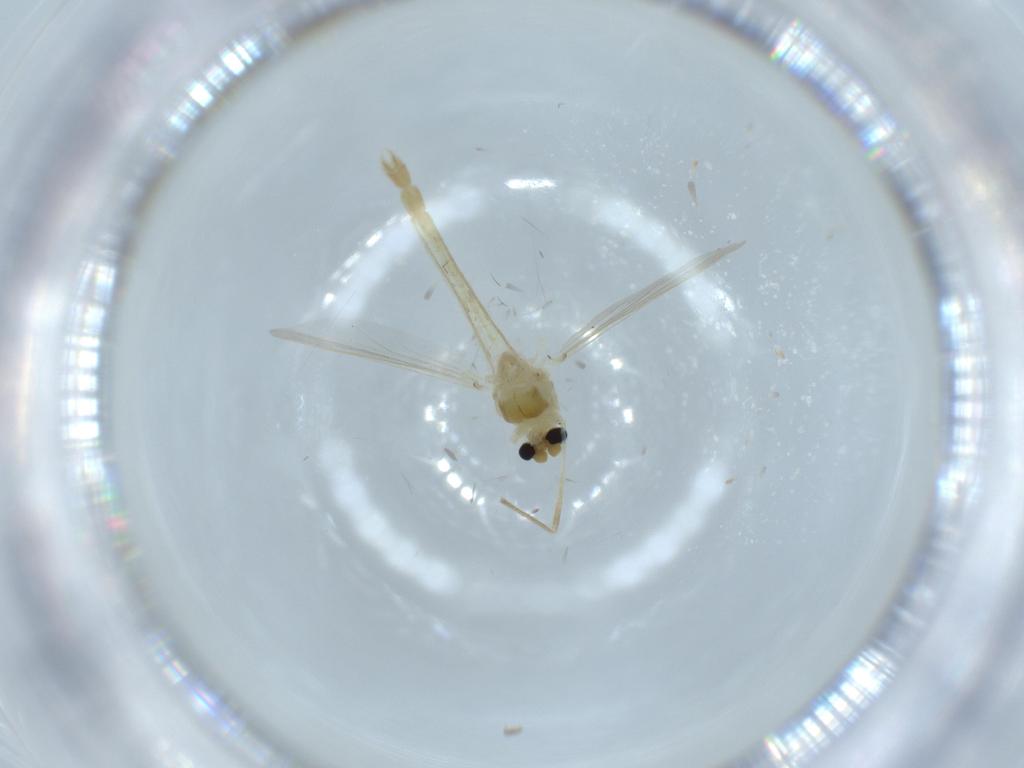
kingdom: Animalia
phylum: Arthropoda
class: Insecta
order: Diptera
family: Chironomidae
